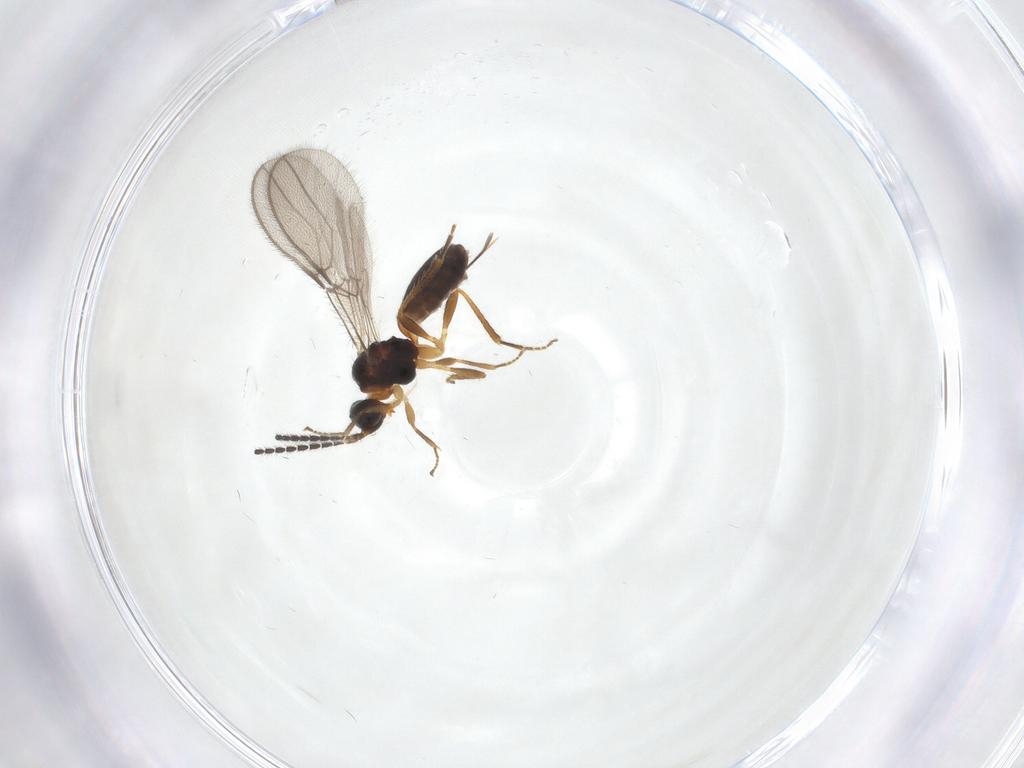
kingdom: Animalia
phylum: Arthropoda
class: Insecta
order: Hymenoptera
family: Braconidae
